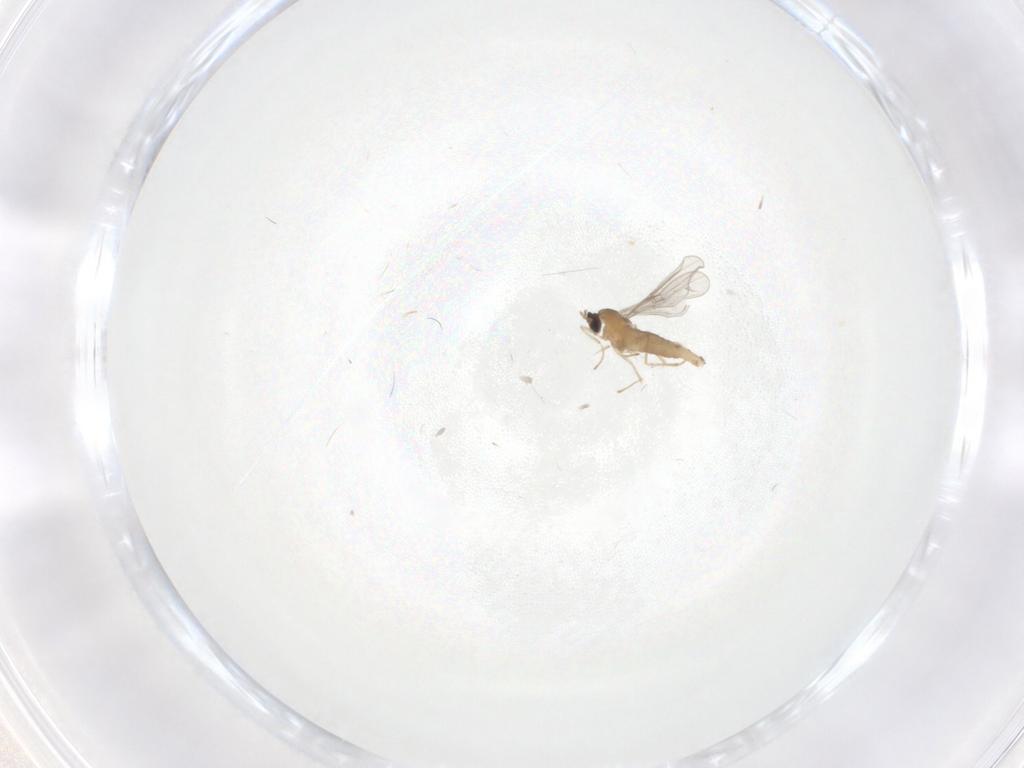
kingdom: Animalia
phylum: Arthropoda
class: Insecta
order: Diptera
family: Cecidomyiidae
